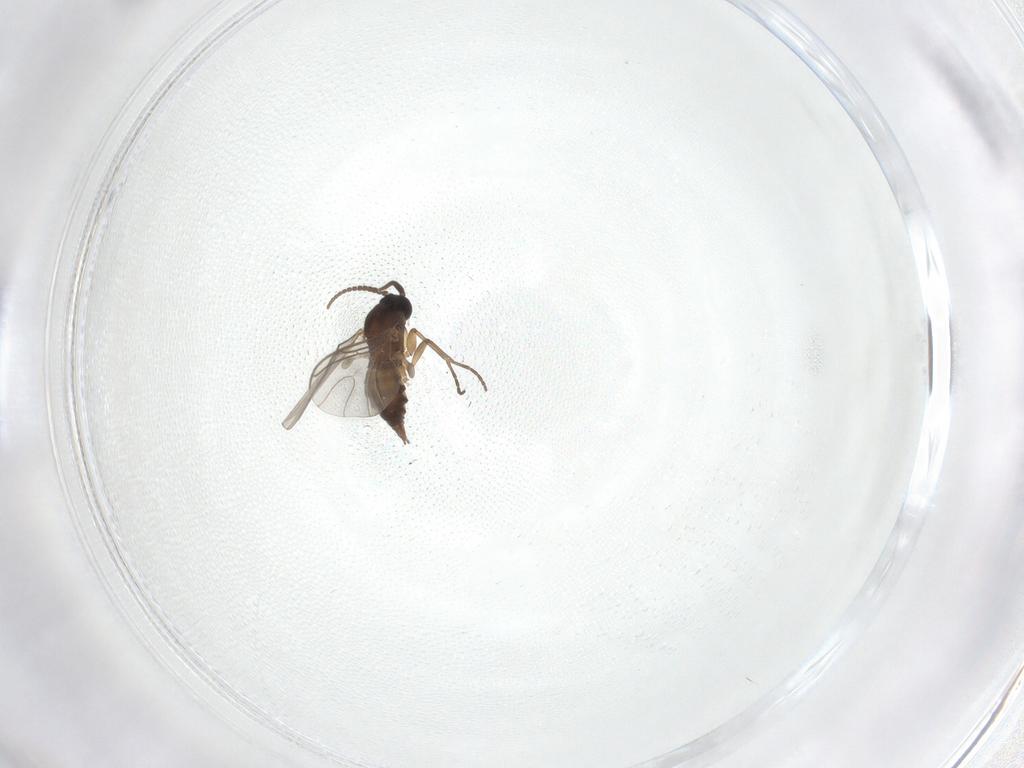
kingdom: Animalia
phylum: Arthropoda
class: Insecta
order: Diptera
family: Sciaridae
